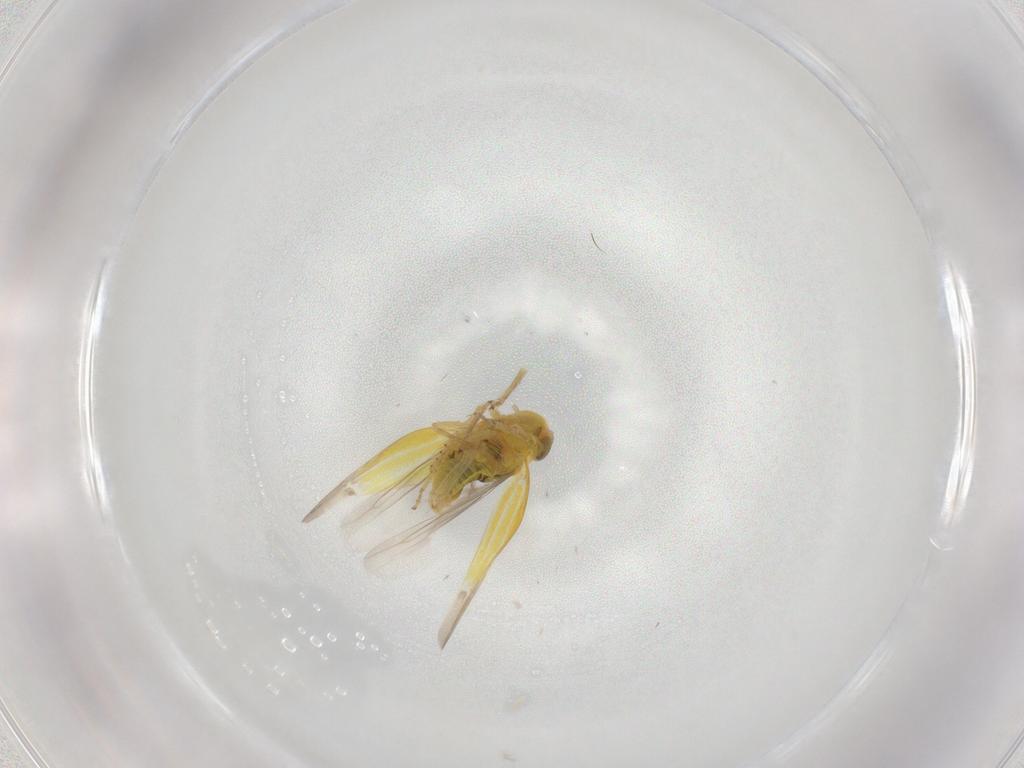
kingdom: Animalia
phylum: Arthropoda
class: Insecta
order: Hemiptera
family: Cicadellidae
